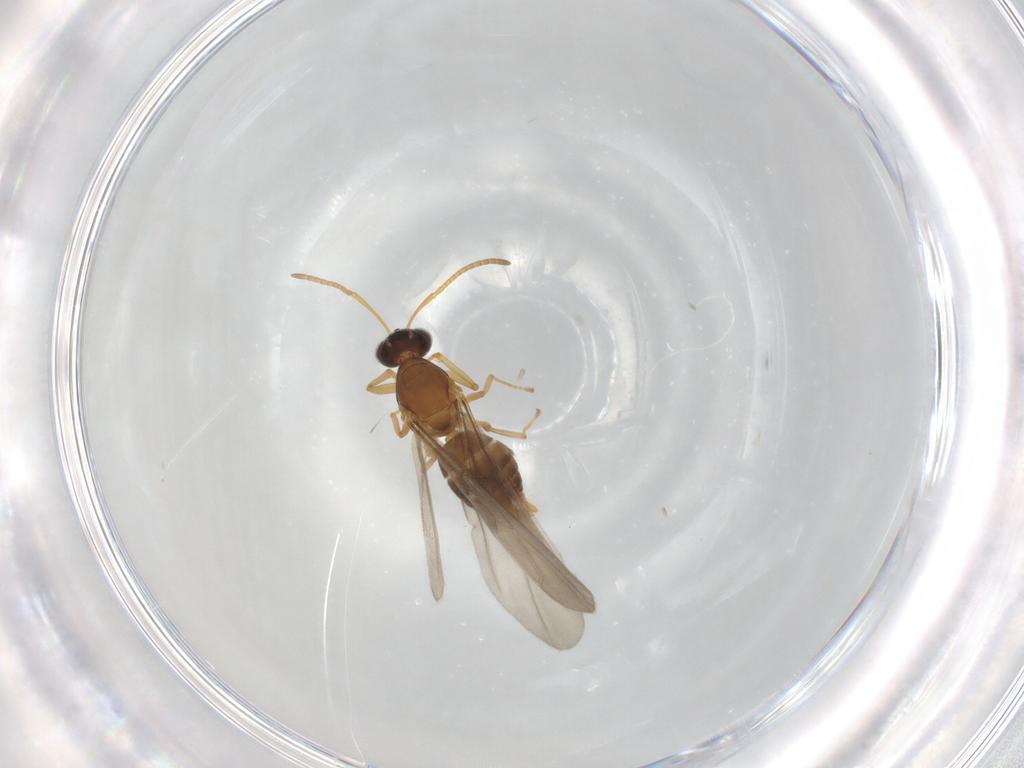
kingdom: Animalia
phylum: Arthropoda
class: Insecta
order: Hymenoptera
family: Formicidae
